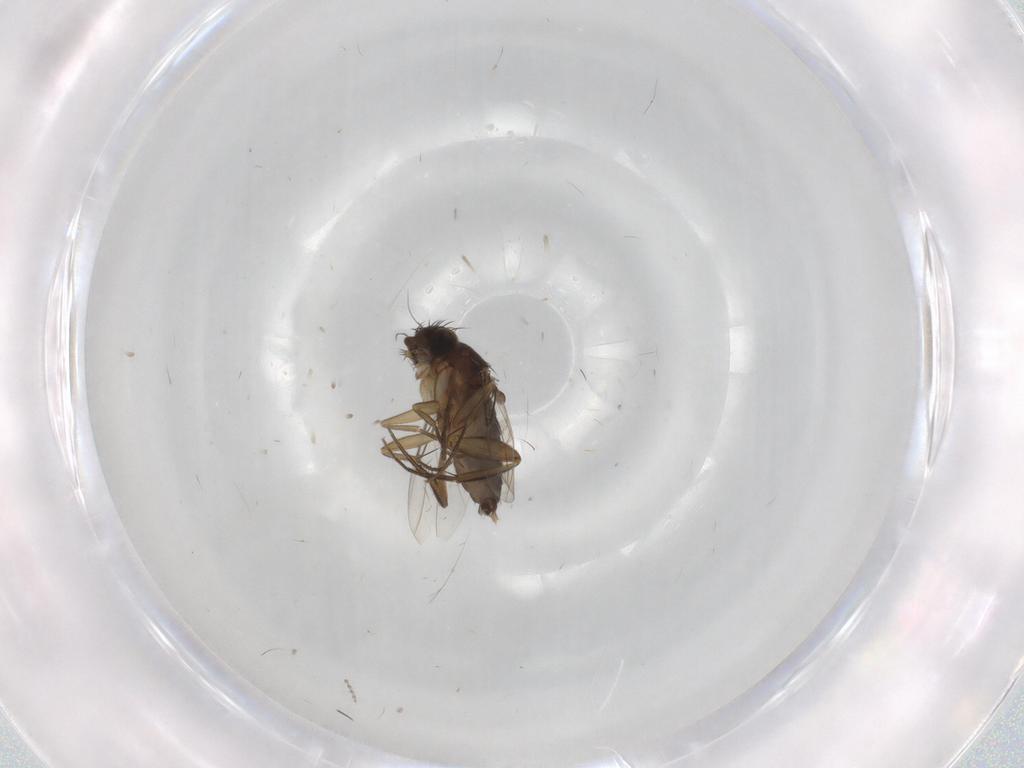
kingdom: Animalia
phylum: Arthropoda
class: Insecta
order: Diptera
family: Phoridae
